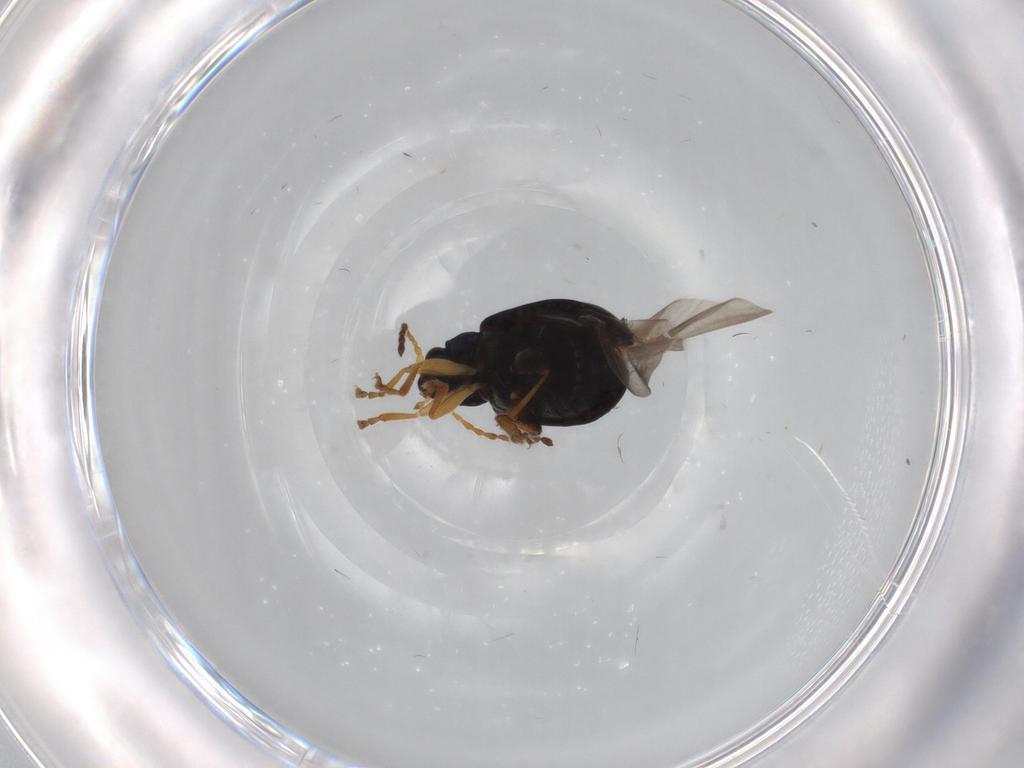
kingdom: Animalia
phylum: Arthropoda
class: Insecta
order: Coleoptera
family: Chrysomelidae
